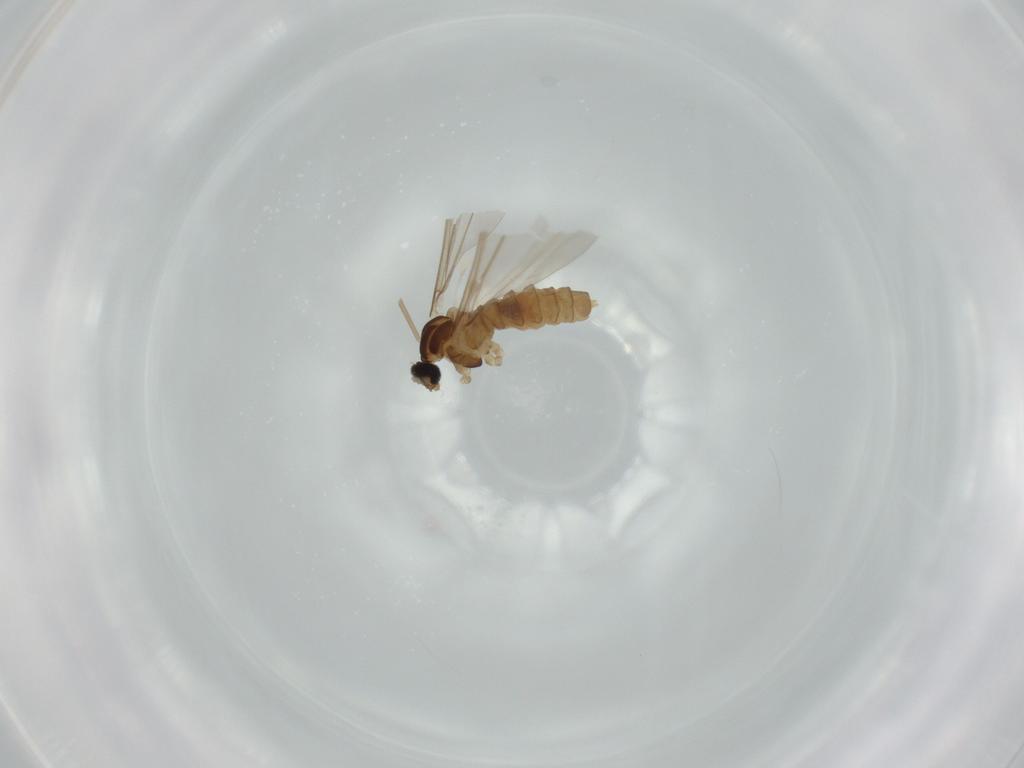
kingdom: Animalia
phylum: Arthropoda
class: Insecta
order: Diptera
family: Cecidomyiidae
